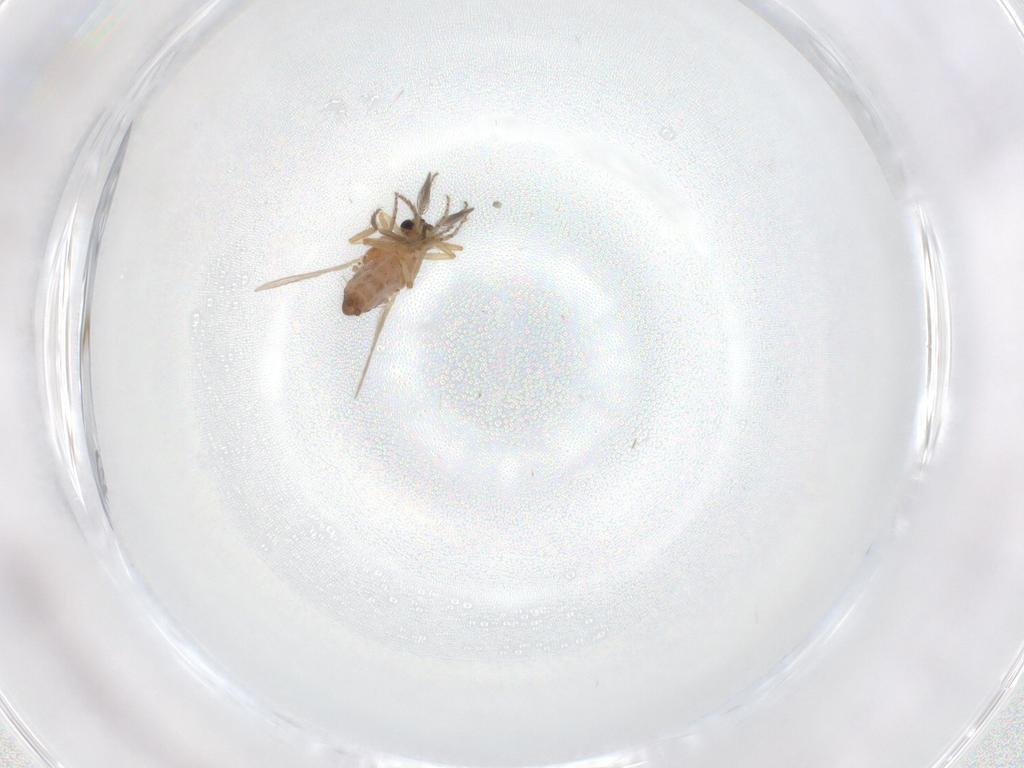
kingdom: Animalia
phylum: Arthropoda
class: Insecta
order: Diptera
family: Ceratopogonidae
